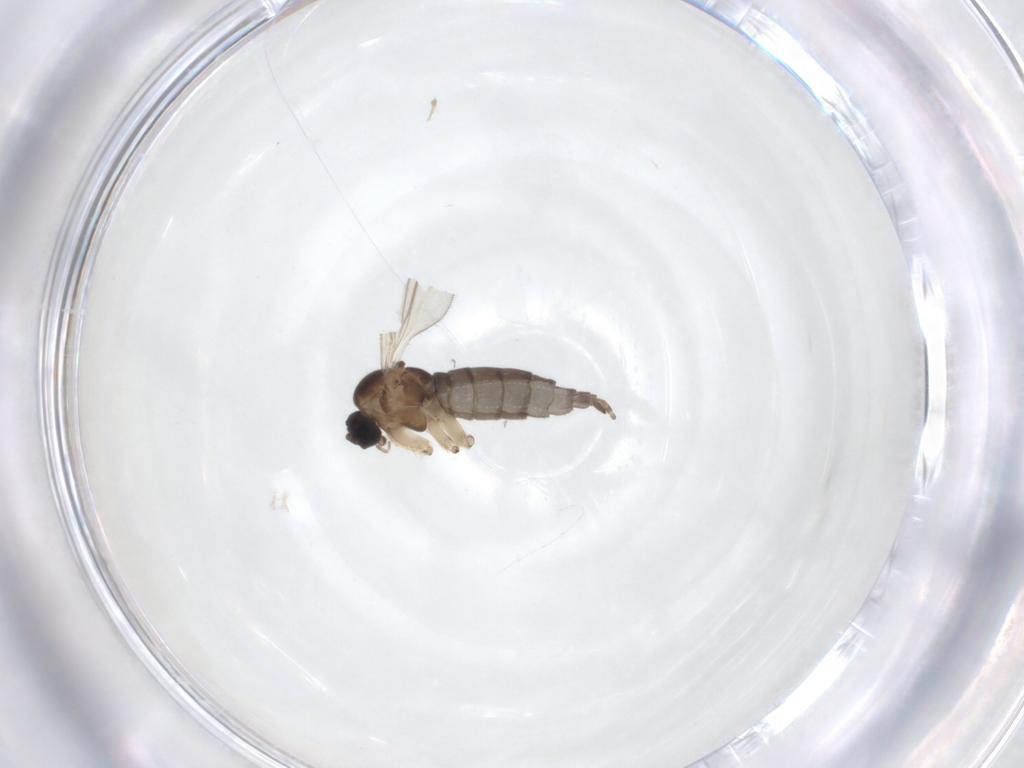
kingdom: Animalia
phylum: Arthropoda
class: Insecta
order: Diptera
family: Sciaridae
